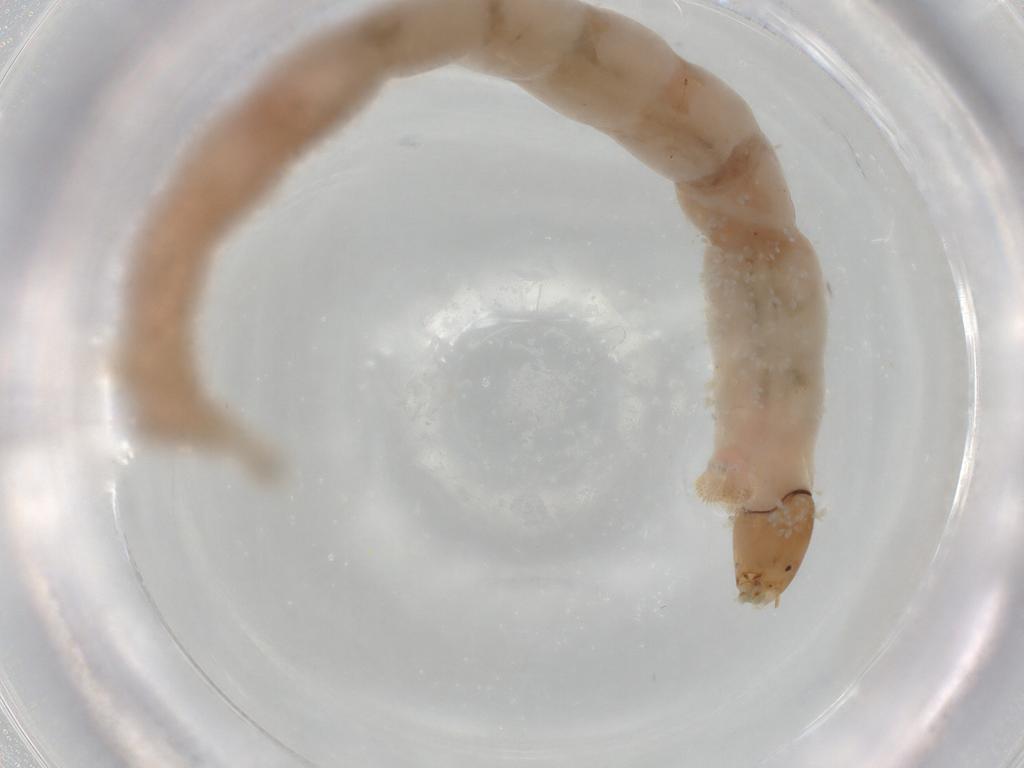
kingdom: Animalia
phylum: Arthropoda
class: Insecta
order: Diptera
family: Chironomidae
